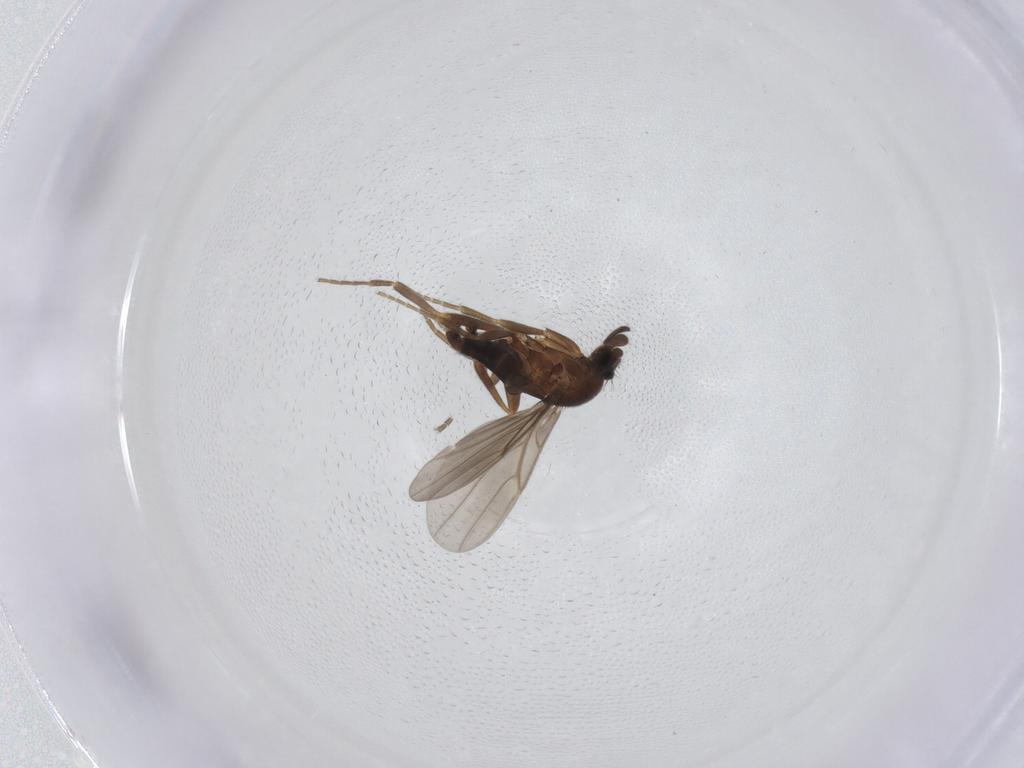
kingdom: Animalia
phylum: Arthropoda
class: Insecta
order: Diptera
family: Phoridae
